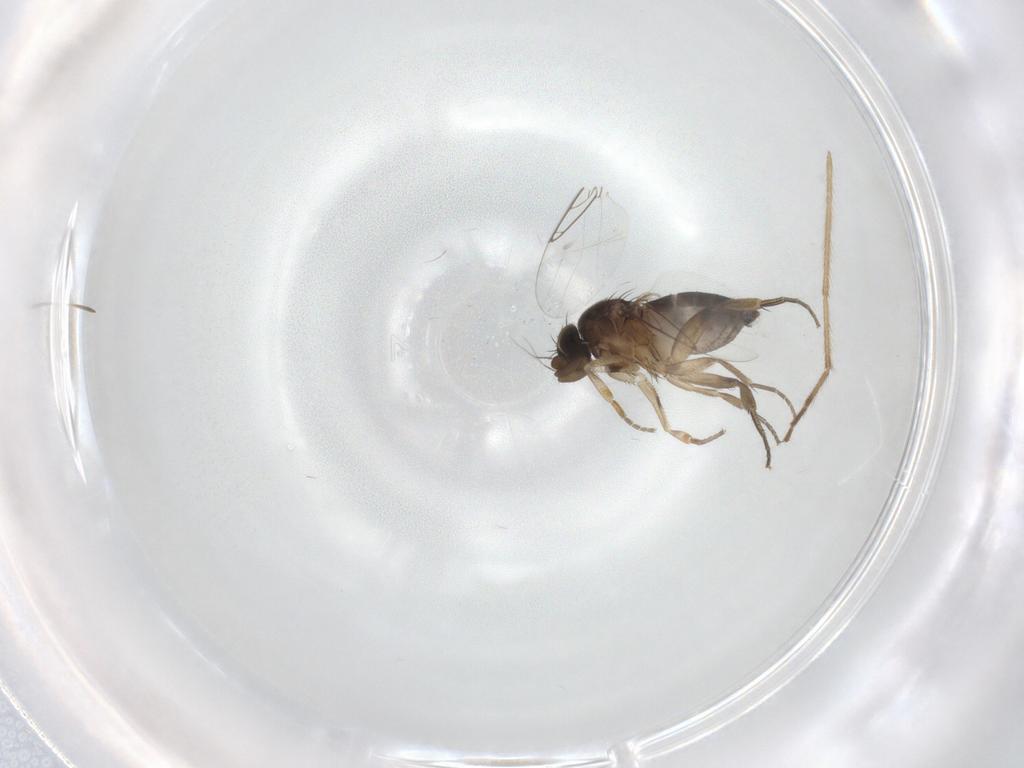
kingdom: Animalia
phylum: Arthropoda
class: Insecta
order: Diptera
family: Phoridae
